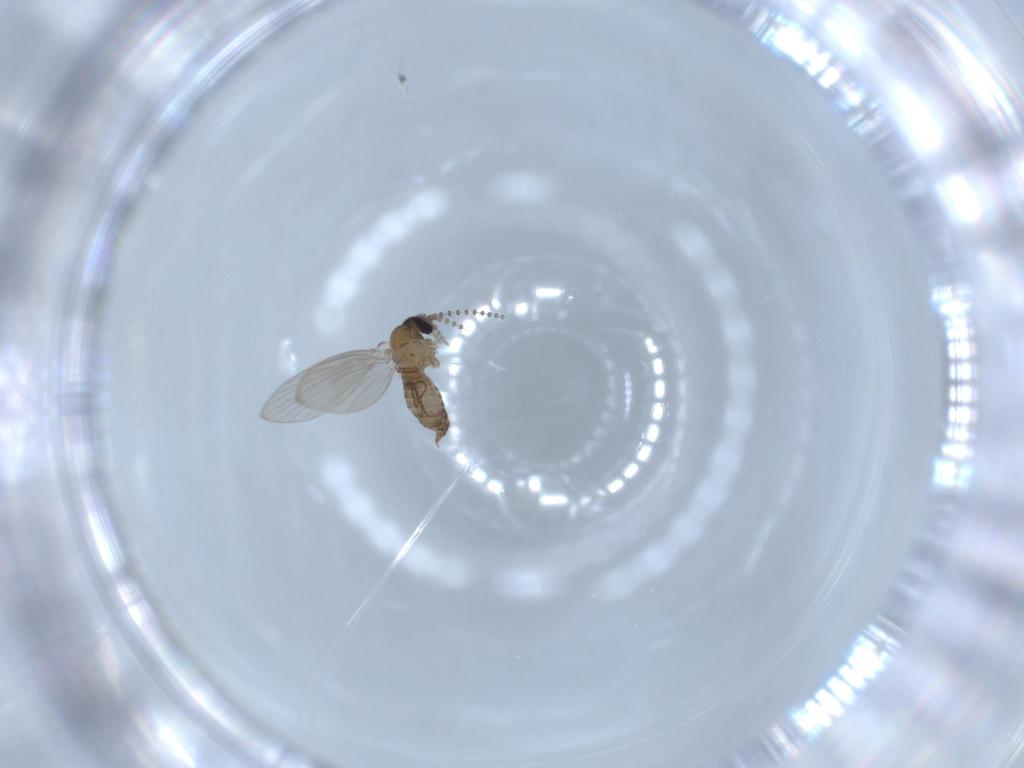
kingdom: Animalia
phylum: Arthropoda
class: Insecta
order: Diptera
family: Psychodidae
